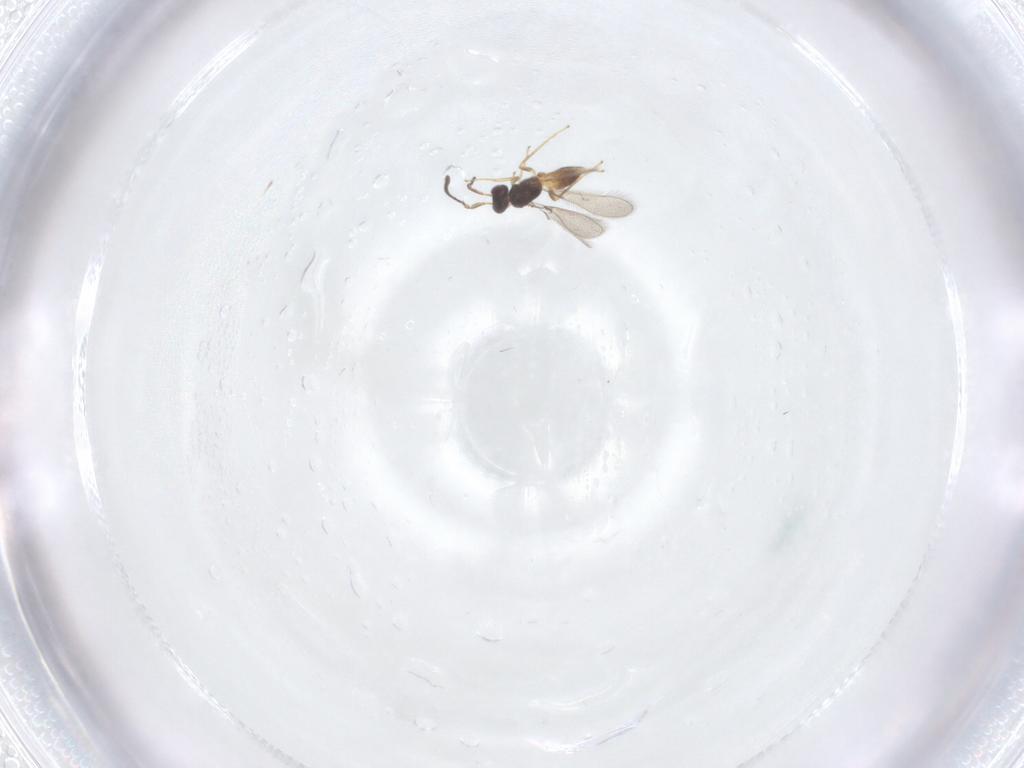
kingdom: Animalia
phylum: Arthropoda
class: Insecta
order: Hymenoptera
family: Mymaridae
